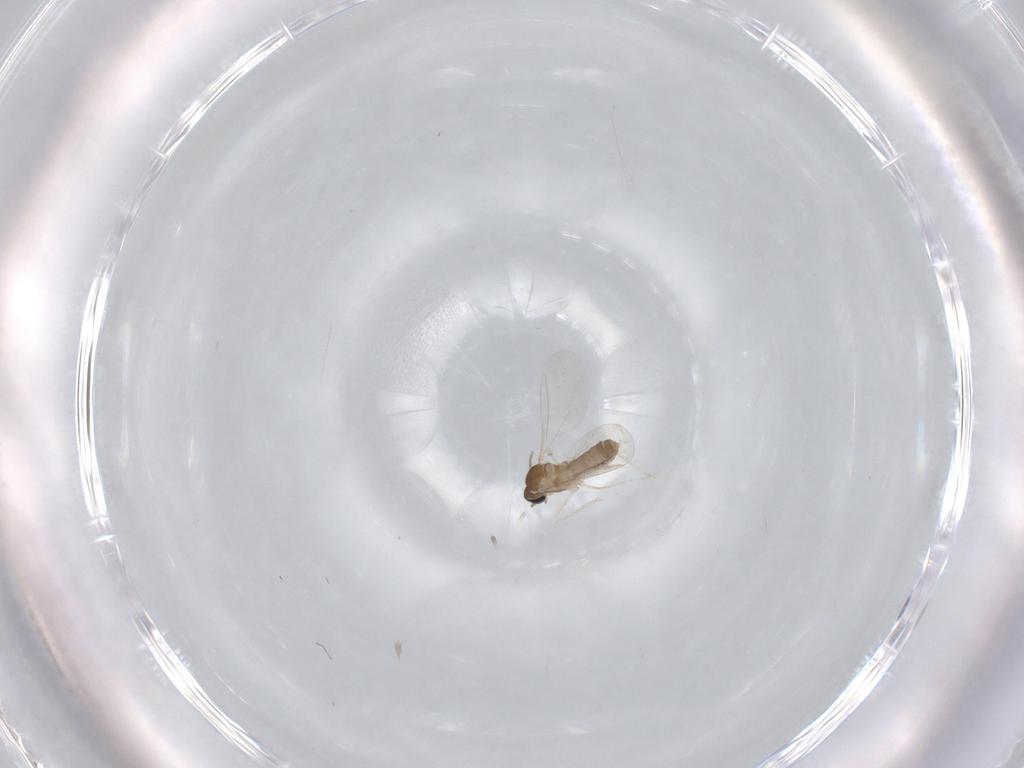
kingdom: Animalia
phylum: Arthropoda
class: Insecta
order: Diptera
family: Cecidomyiidae
